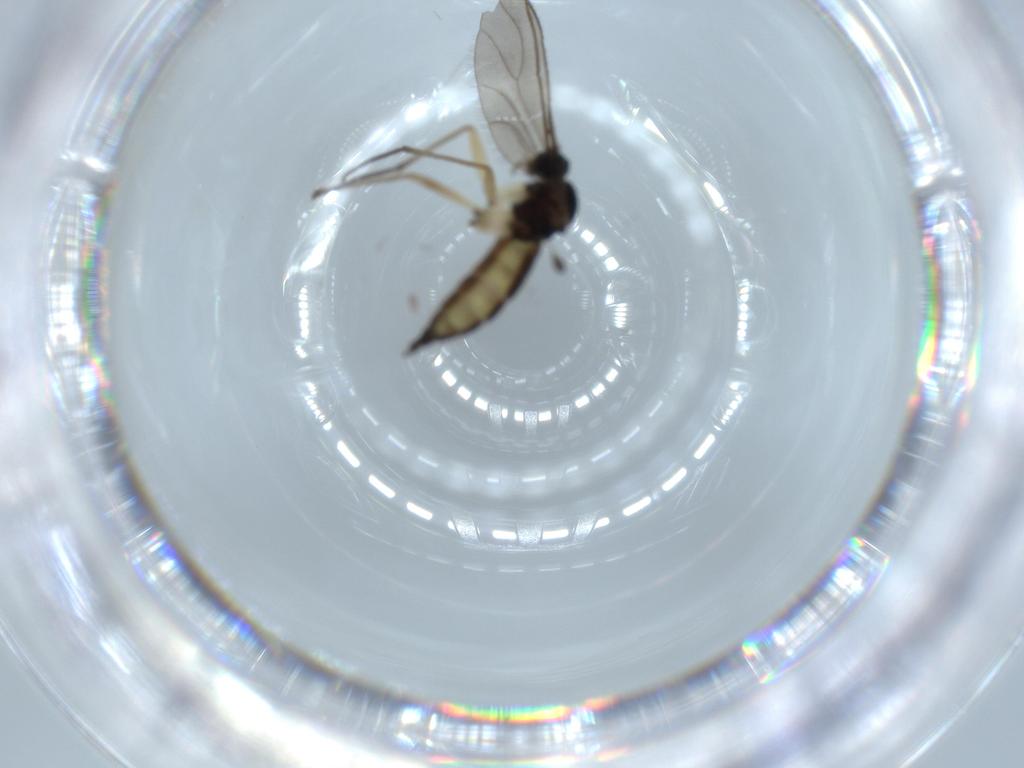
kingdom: Animalia
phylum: Arthropoda
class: Insecta
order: Diptera
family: Sciaridae
